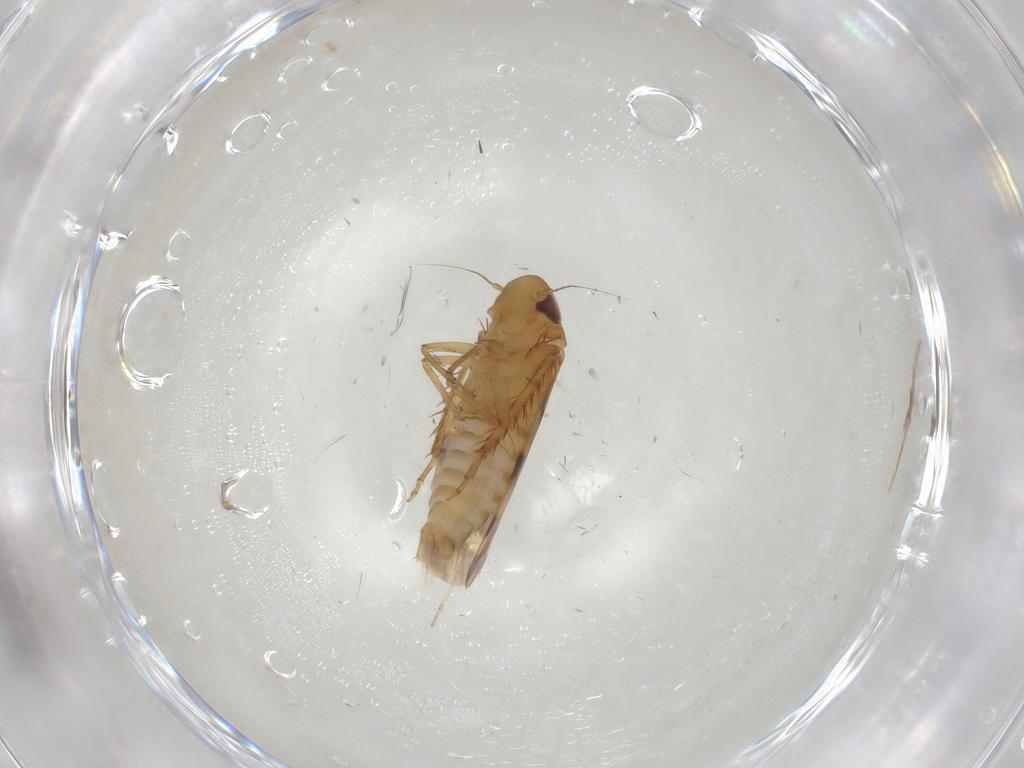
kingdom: Animalia
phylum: Arthropoda
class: Insecta
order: Hemiptera
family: Cicadellidae
